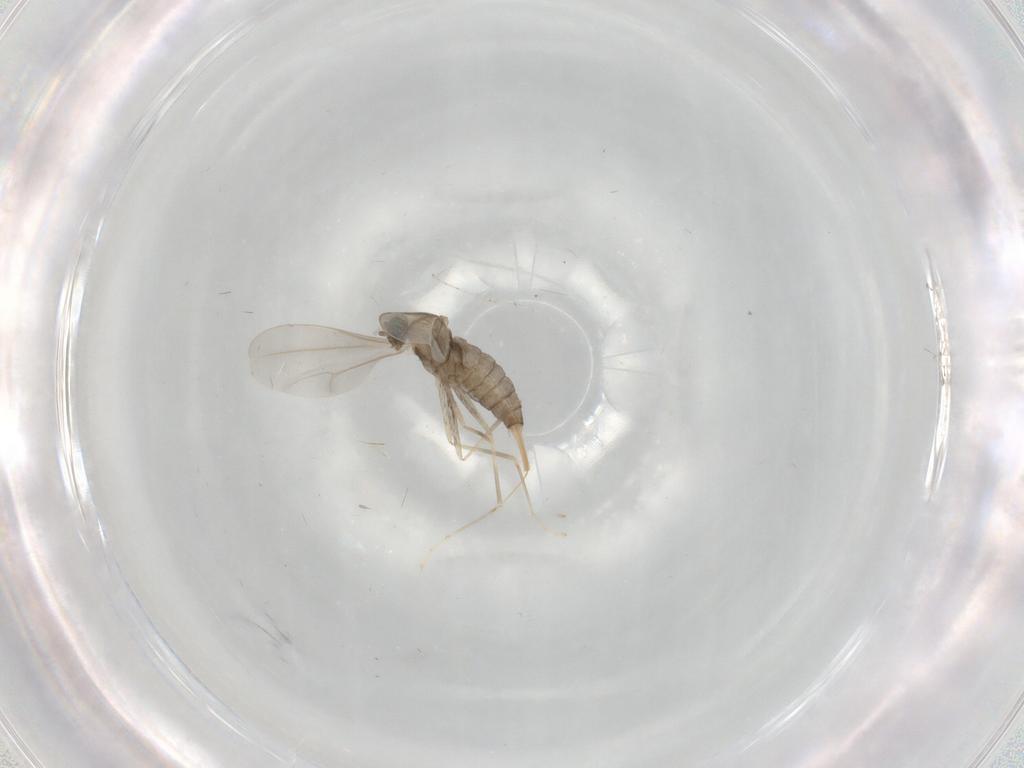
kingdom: Animalia
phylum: Arthropoda
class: Insecta
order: Diptera
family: Cecidomyiidae
